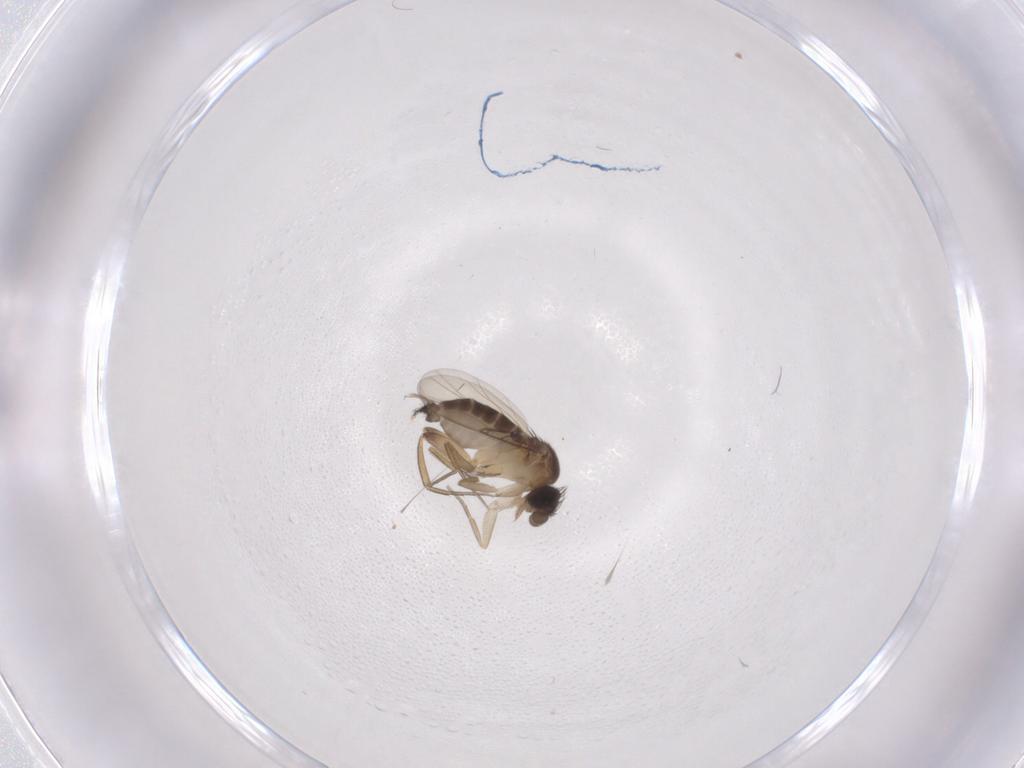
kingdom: Animalia
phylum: Arthropoda
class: Insecta
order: Diptera
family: Phoridae
